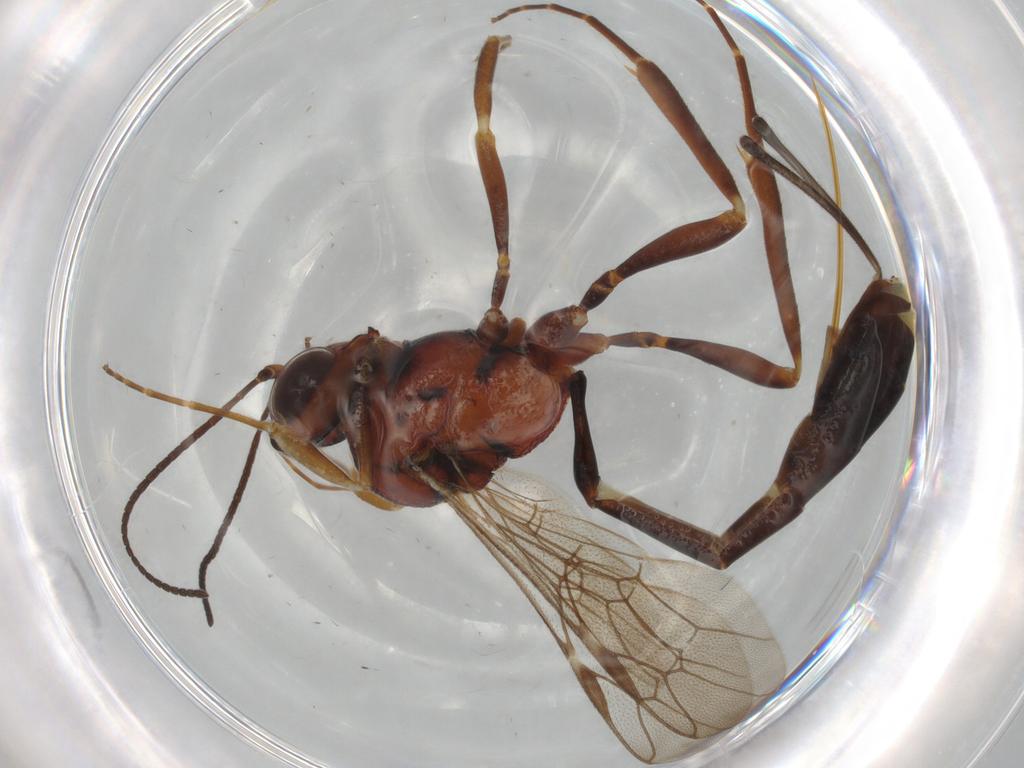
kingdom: Animalia
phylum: Arthropoda
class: Insecta
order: Hymenoptera
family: Ichneumonidae
